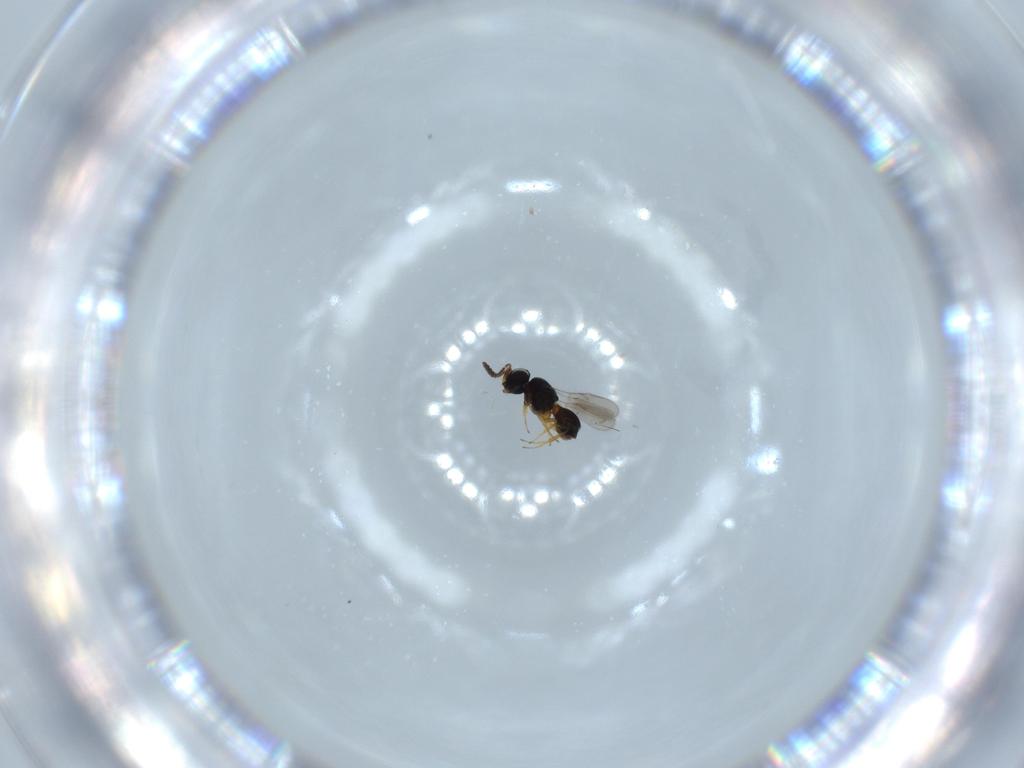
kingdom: Animalia
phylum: Arthropoda
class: Insecta
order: Hymenoptera
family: Scelionidae
